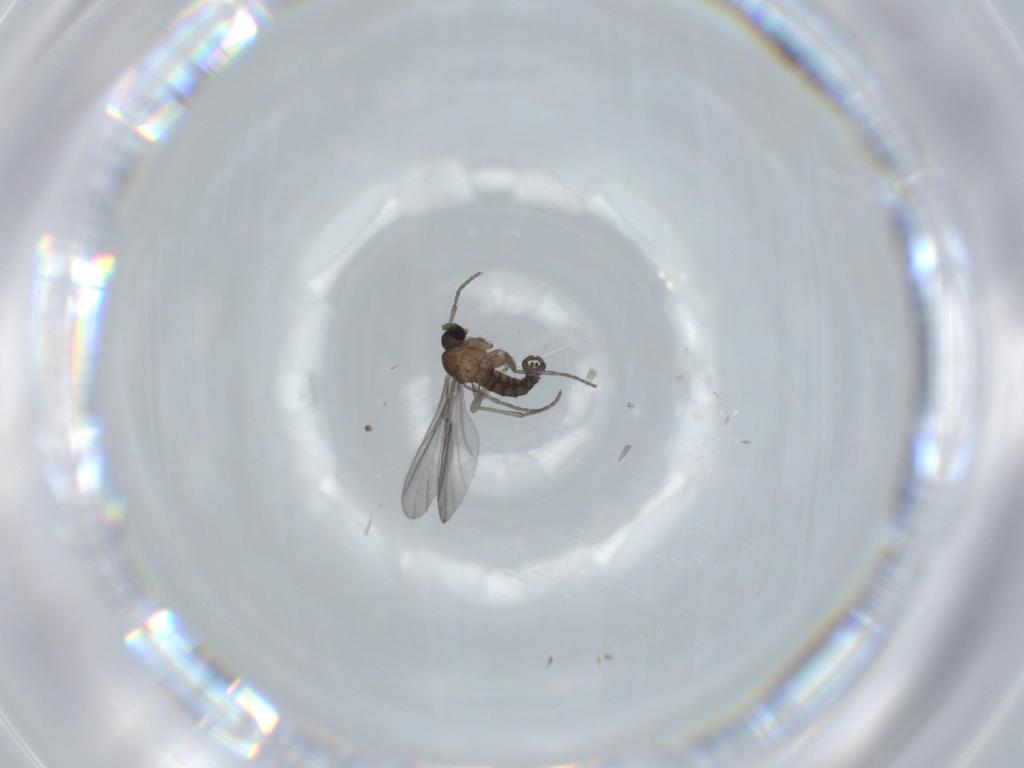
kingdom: Animalia
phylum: Arthropoda
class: Insecta
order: Diptera
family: Sciaridae
